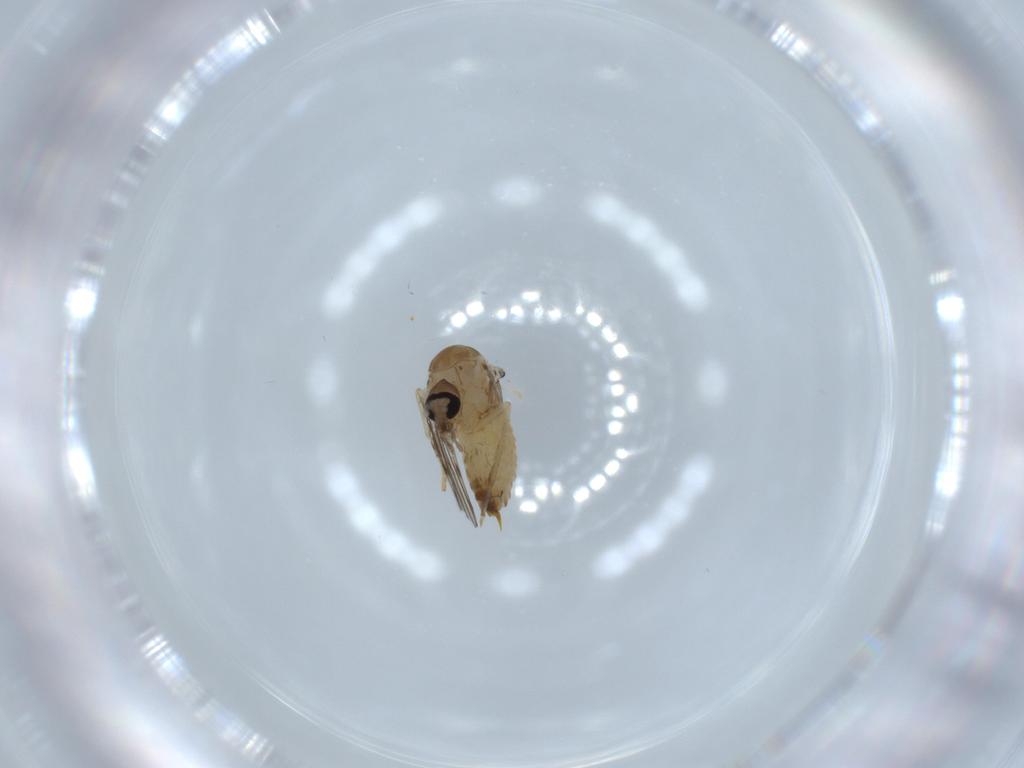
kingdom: Animalia
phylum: Arthropoda
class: Insecta
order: Diptera
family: Psychodidae
